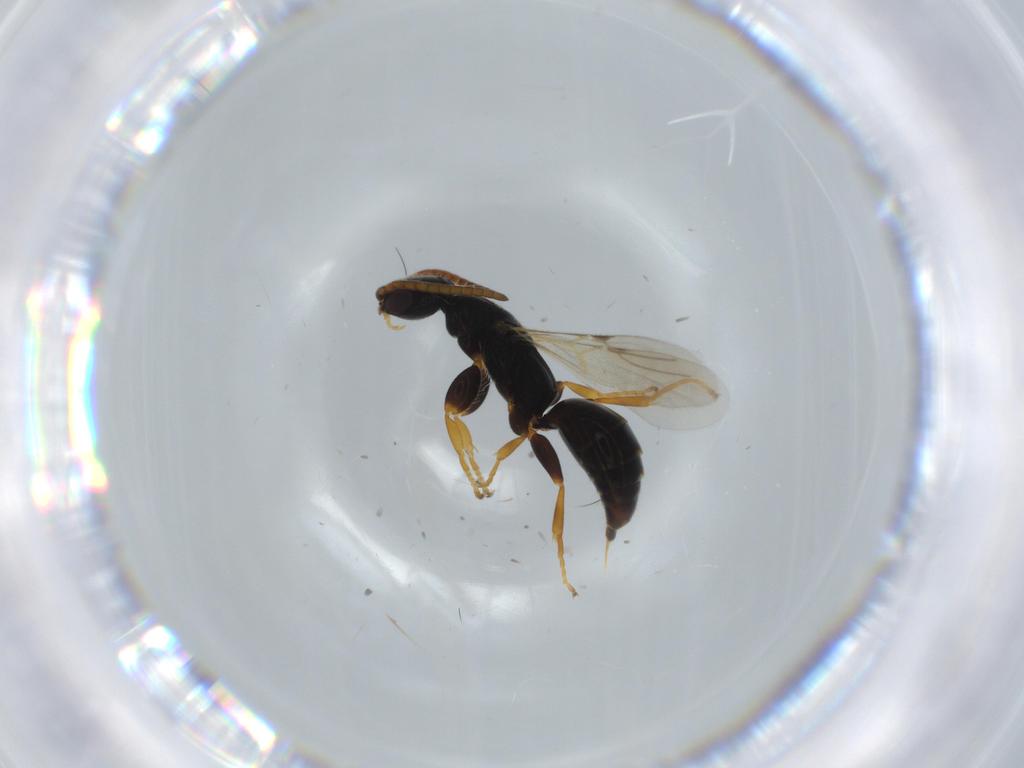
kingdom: Animalia
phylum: Arthropoda
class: Insecta
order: Hymenoptera
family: Bethylidae
